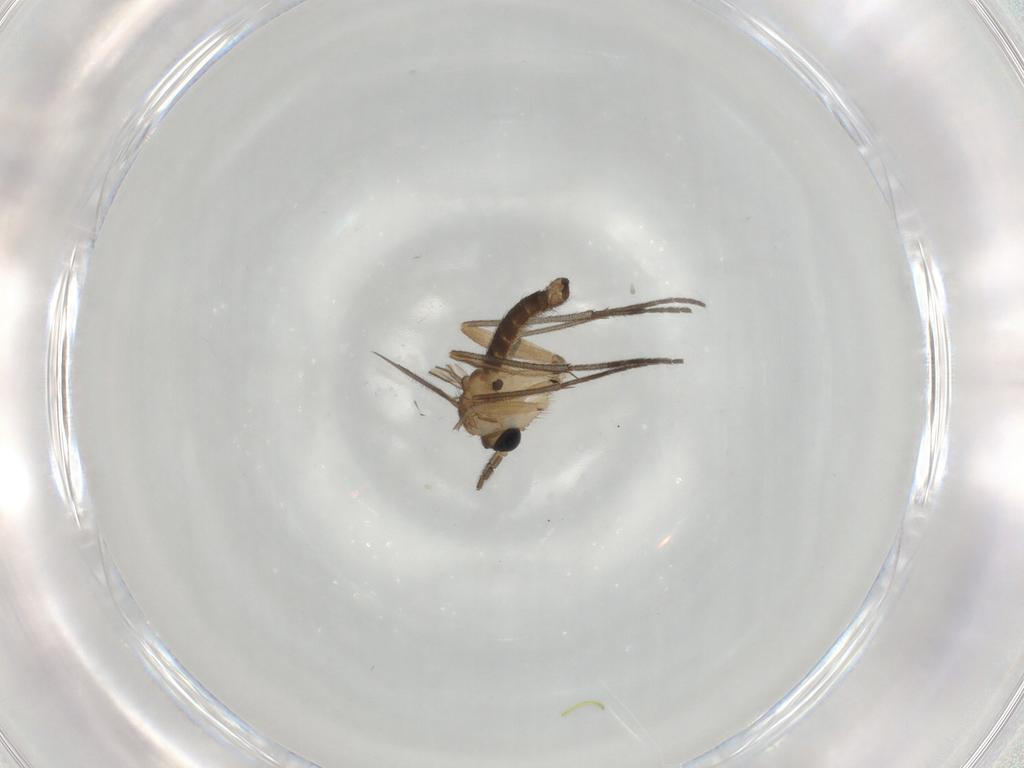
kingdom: Animalia
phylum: Arthropoda
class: Insecta
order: Diptera
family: Sciaridae
